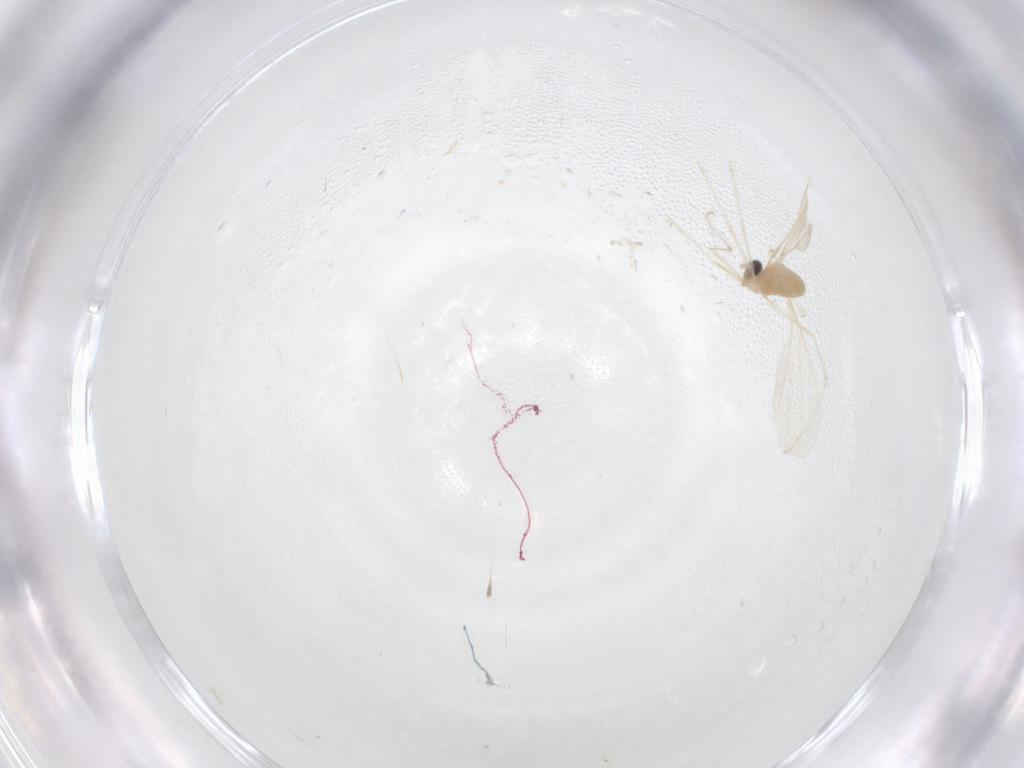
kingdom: Animalia
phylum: Arthropoda
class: Insecta
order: Diptera
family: Cecidomyiidae
